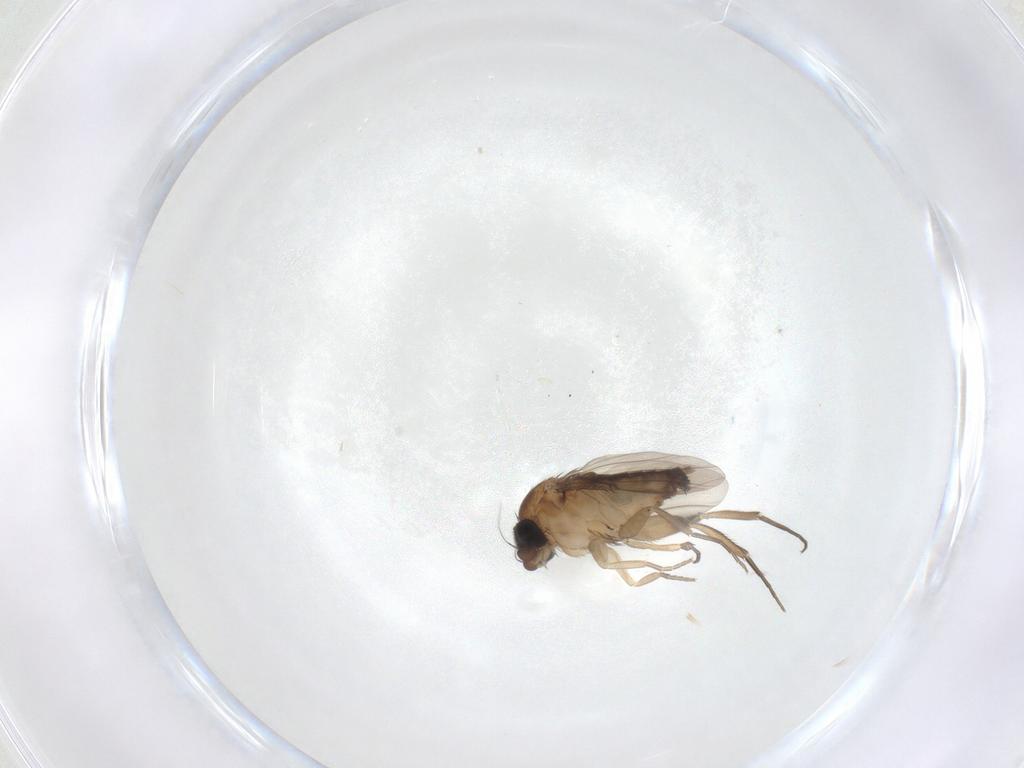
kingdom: Animalia
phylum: Arthropoda
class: Insecta
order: Diptera
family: Phoridae
